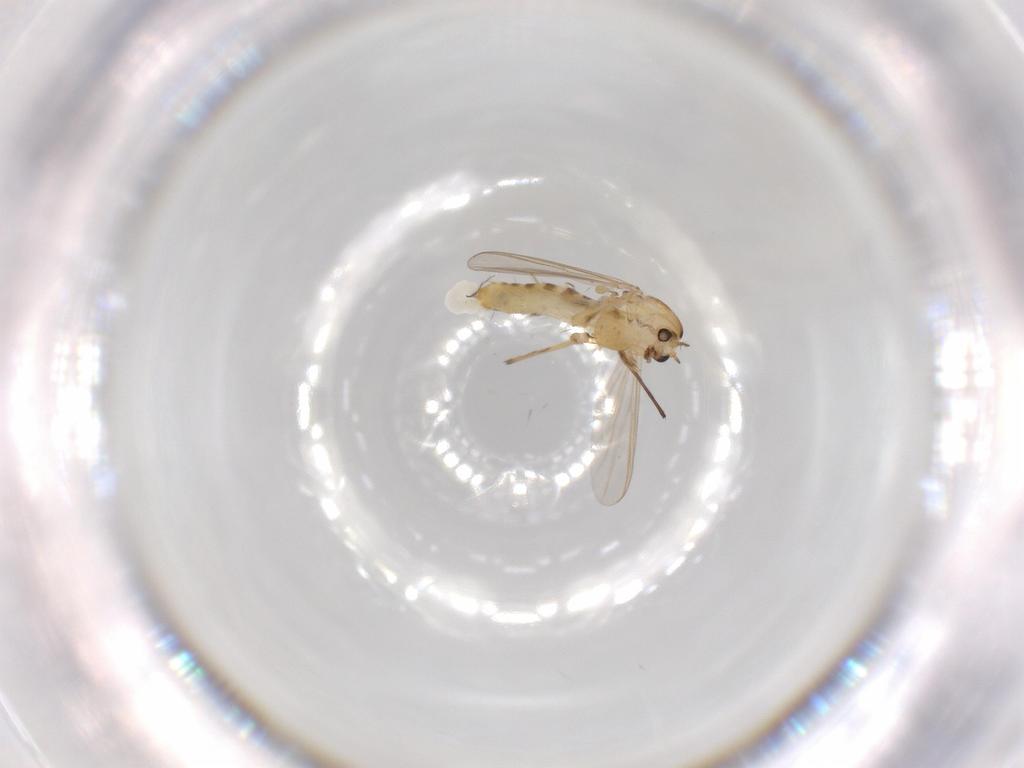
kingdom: Animalia
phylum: Arthropoda
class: Insecta
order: Diptera
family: Chironomidae
